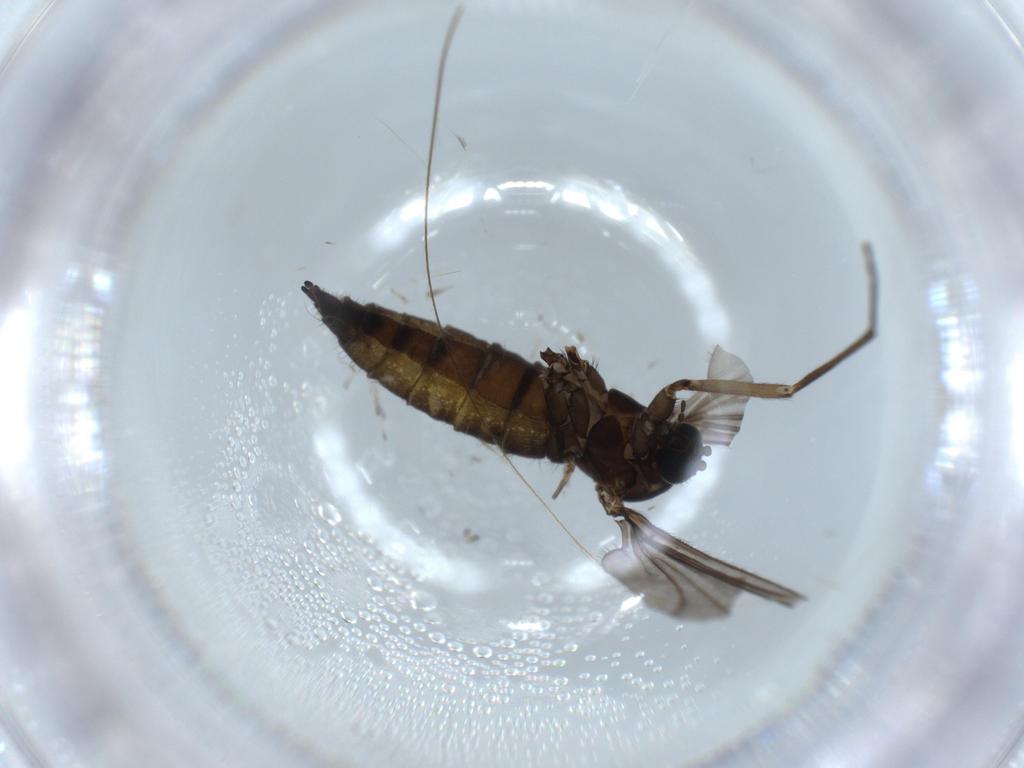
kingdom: Animalia
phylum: Arthropoda
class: Insecta
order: Diptera
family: Sciaridae
